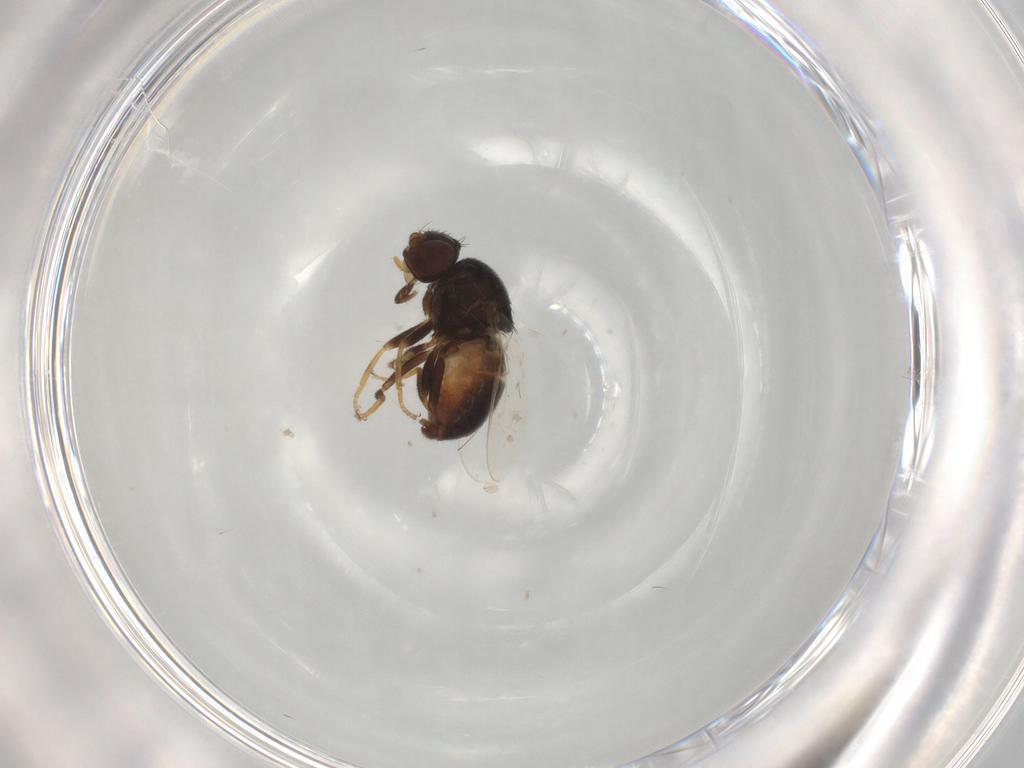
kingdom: Animalia
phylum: Arthropoda
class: Insecta
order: Diptera
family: Chloropidae
